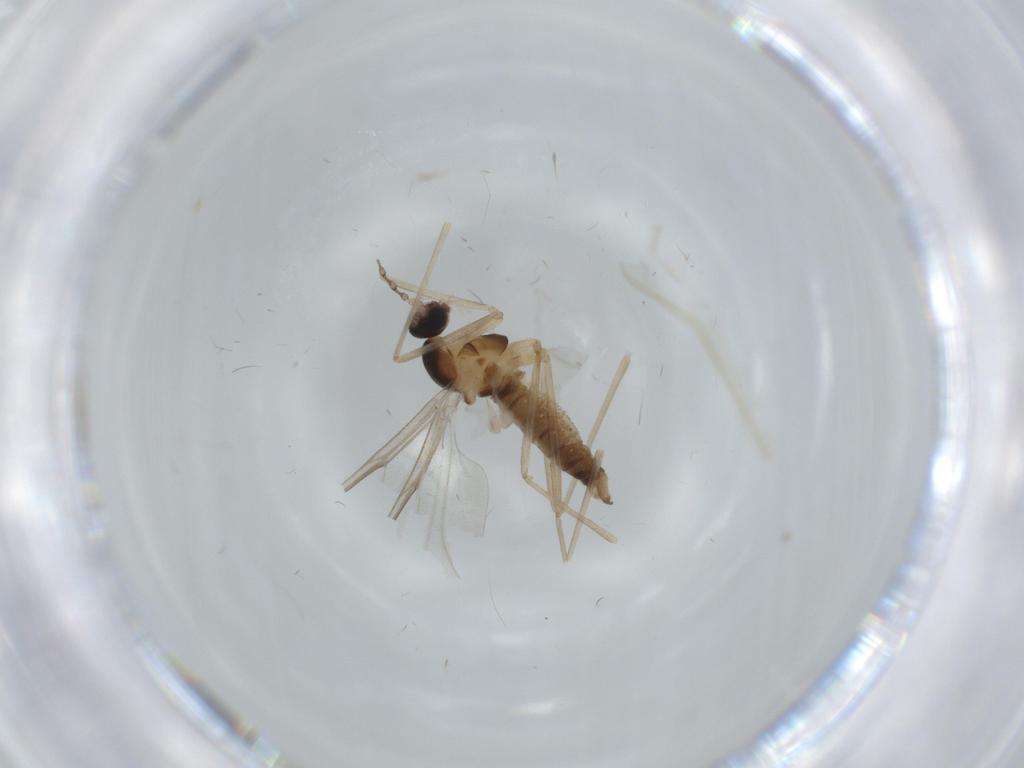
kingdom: Animalia
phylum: Arthropoda
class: Insecta
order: Diptera
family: Cecidomyiidae
